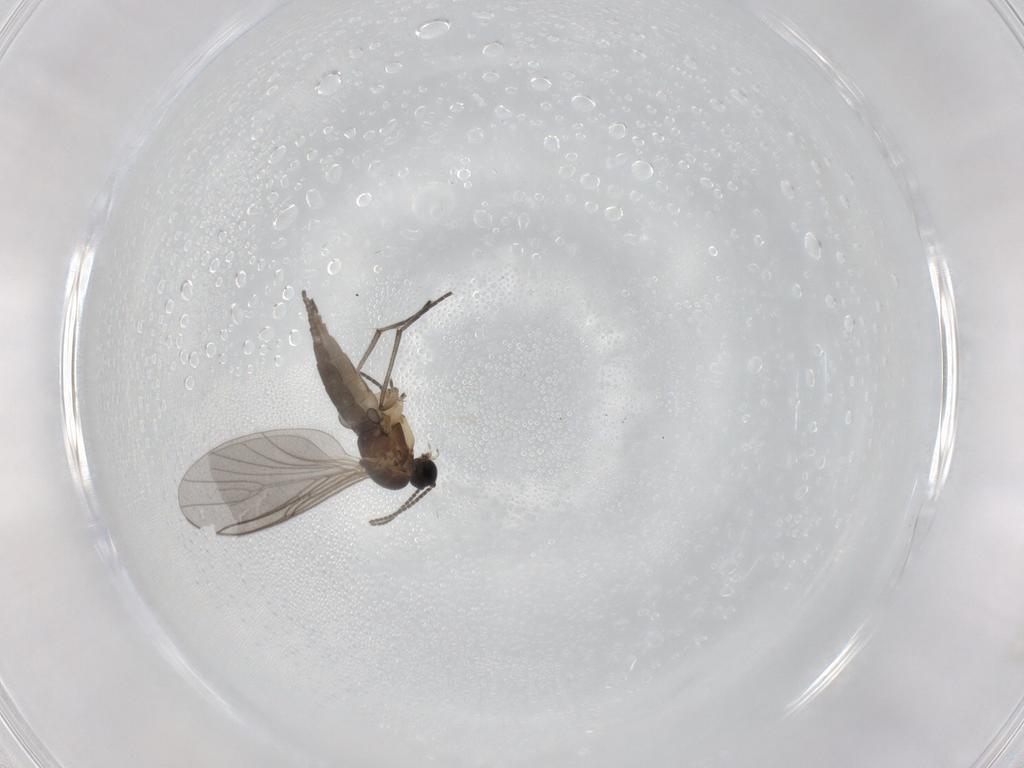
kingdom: Animalia
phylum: Arthropoda
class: Insecta
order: Diptera
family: Sciaridae
